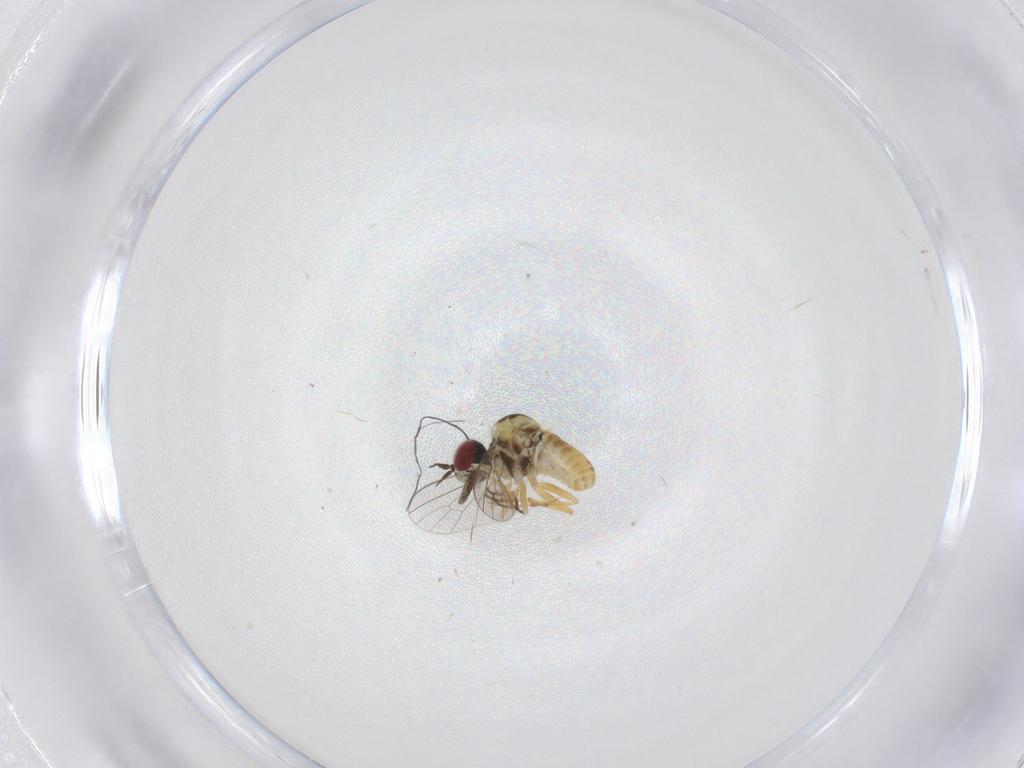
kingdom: Animalia
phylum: Arthropoda
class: Insecta
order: Diptera
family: Mythicomyiidae
